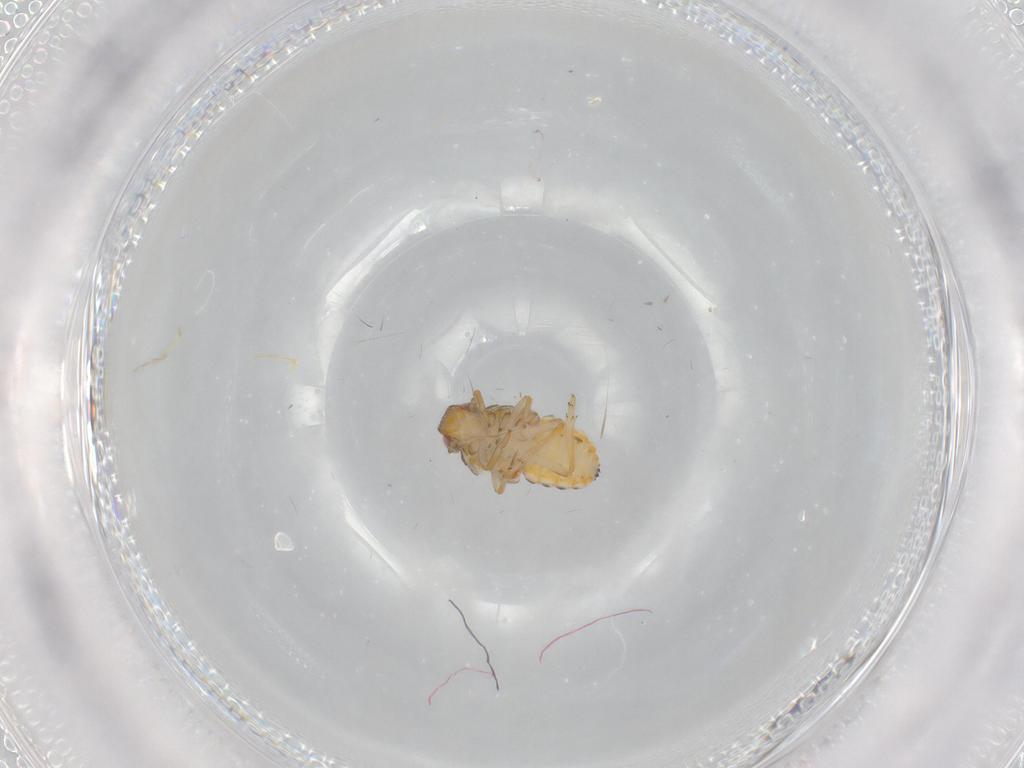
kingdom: Animalia
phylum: Arthropoda
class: Insecta
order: Hemiptera
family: Issidae
